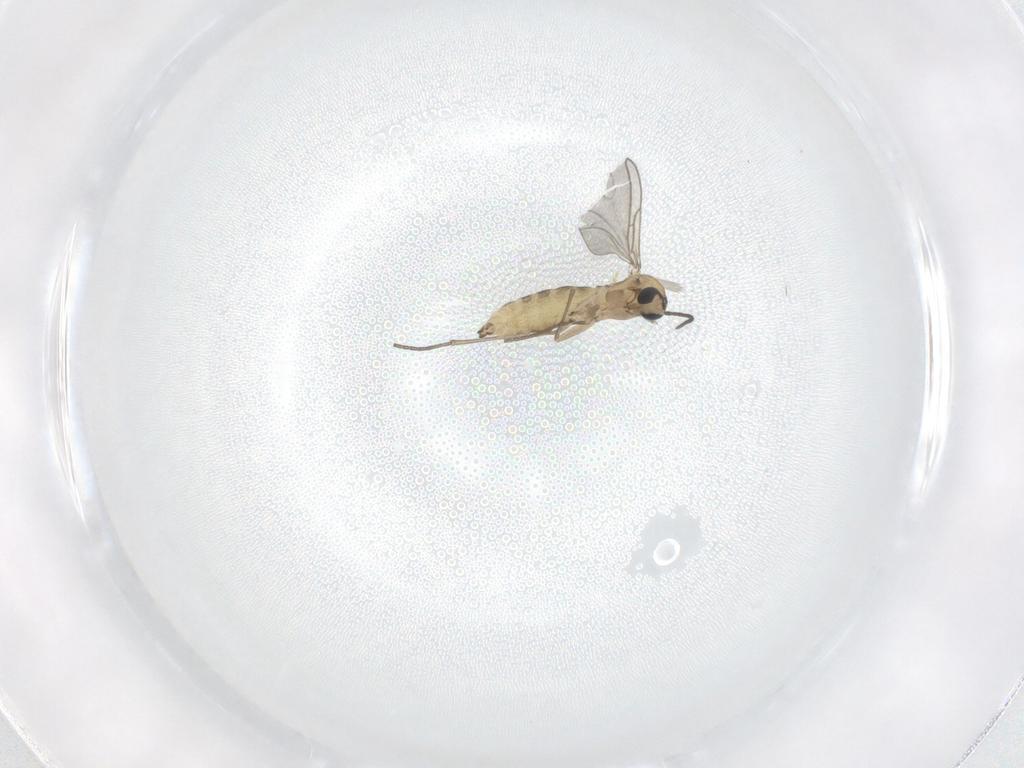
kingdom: Animalia
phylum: Arthropoda
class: Insecta
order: Diptera
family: Sciaridae
